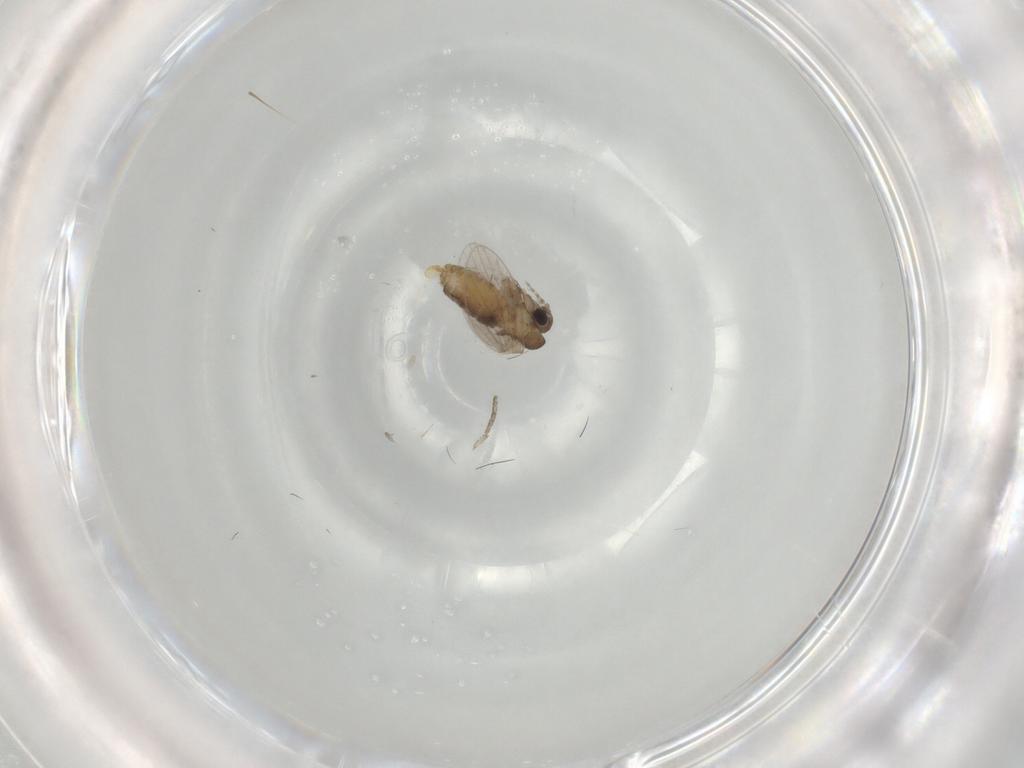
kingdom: Animalia
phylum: Arthropoda
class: Insecta
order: Diptera
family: Psychodidae
